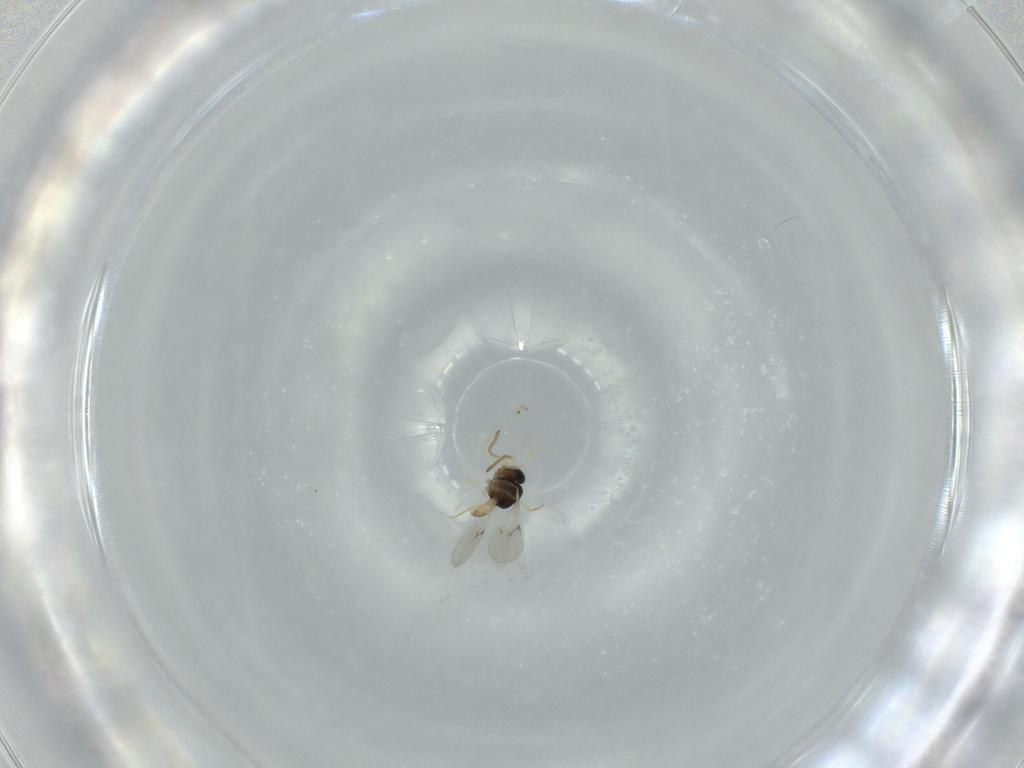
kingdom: Animalia
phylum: Arthropoda
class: Insecta
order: Hymenoptera
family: Scelionidae
